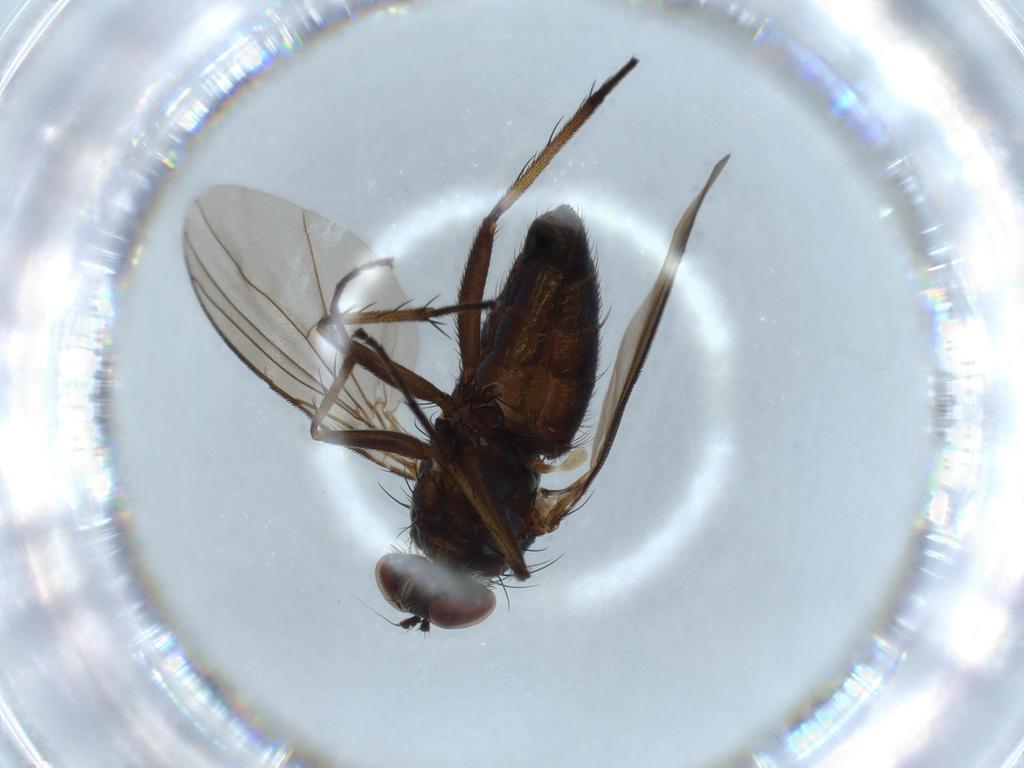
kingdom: Animalia
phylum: Arthropoda
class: Insecta
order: Diptera
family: Dolichopodidae
